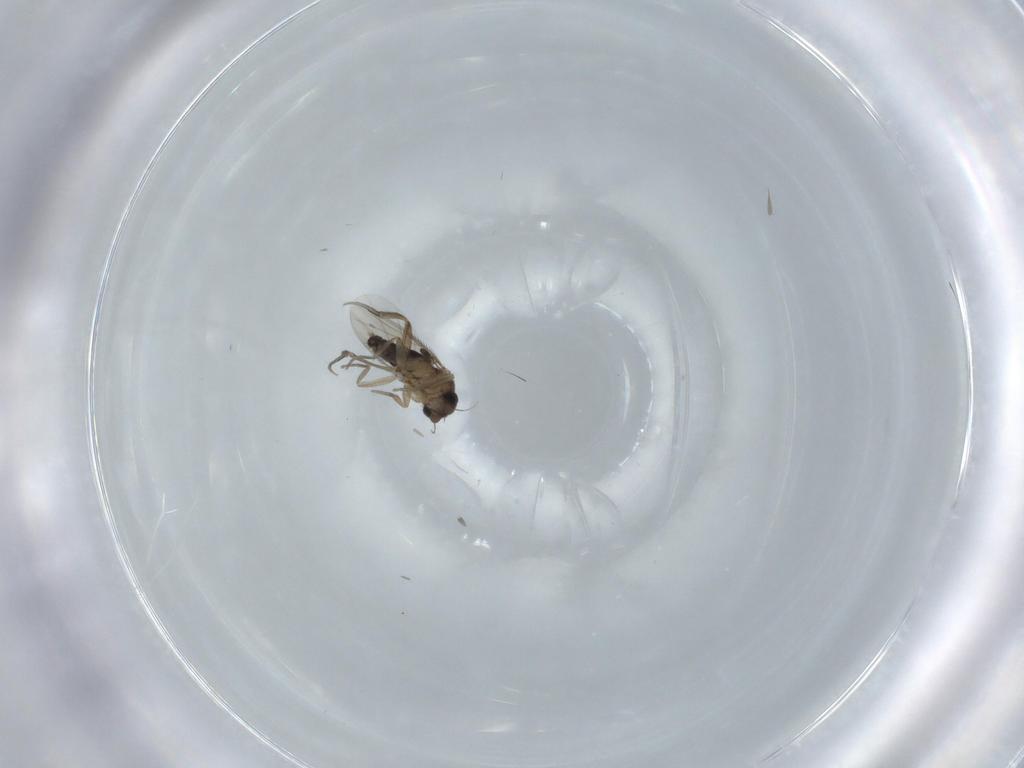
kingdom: Animalia
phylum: Arthropoda
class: Insecta
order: Diptera
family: Phoridae
